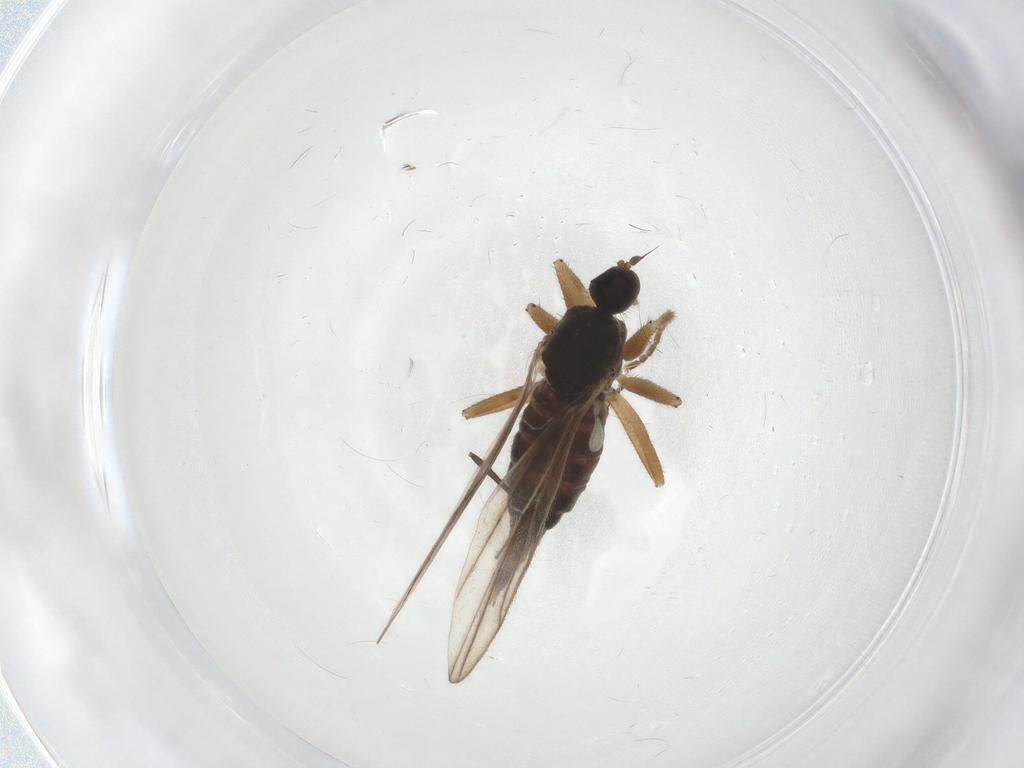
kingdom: Animalia
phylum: Arthropoda
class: Insecta
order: Diptera
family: Hybotidae
